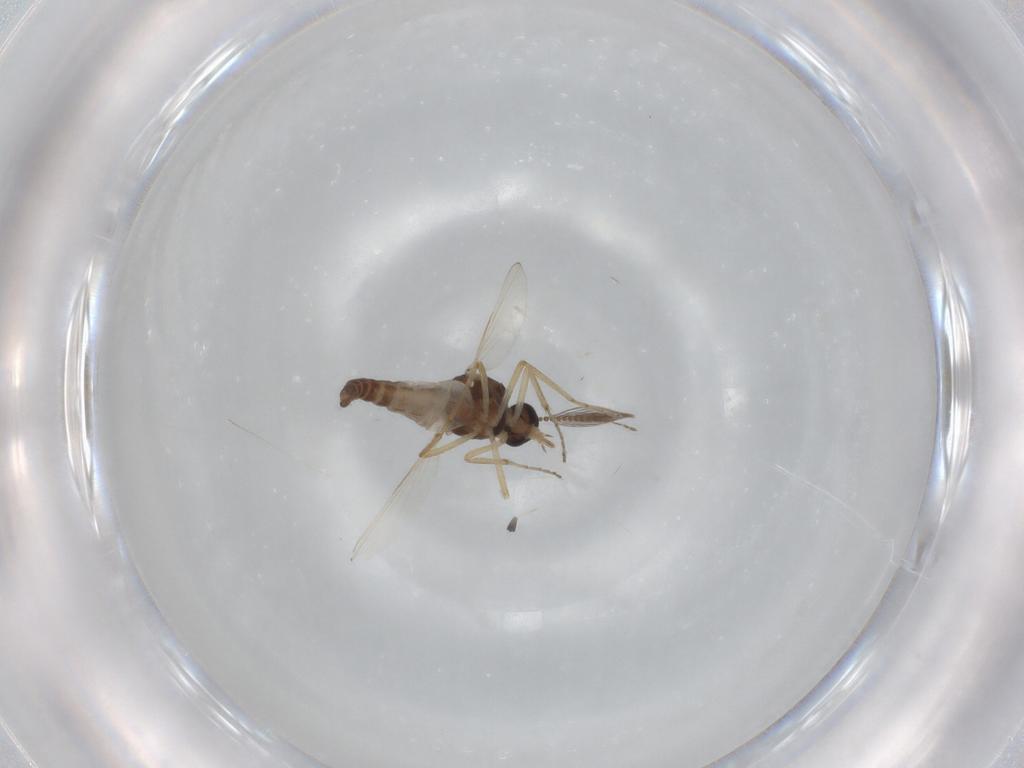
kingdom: Animalia
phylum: Arthropoda
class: Insecta
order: Diptera
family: Ceratopogonidae
